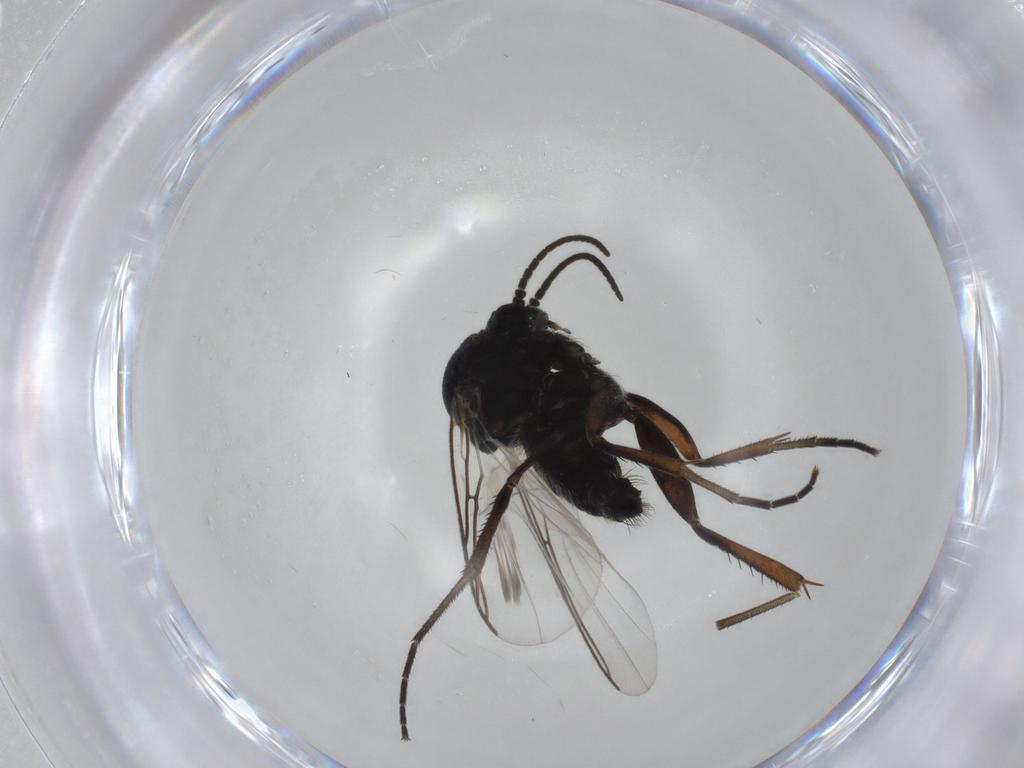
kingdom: Animalia
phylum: Arthropoda
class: Insecta
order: Diptera
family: Mycetophilidae
